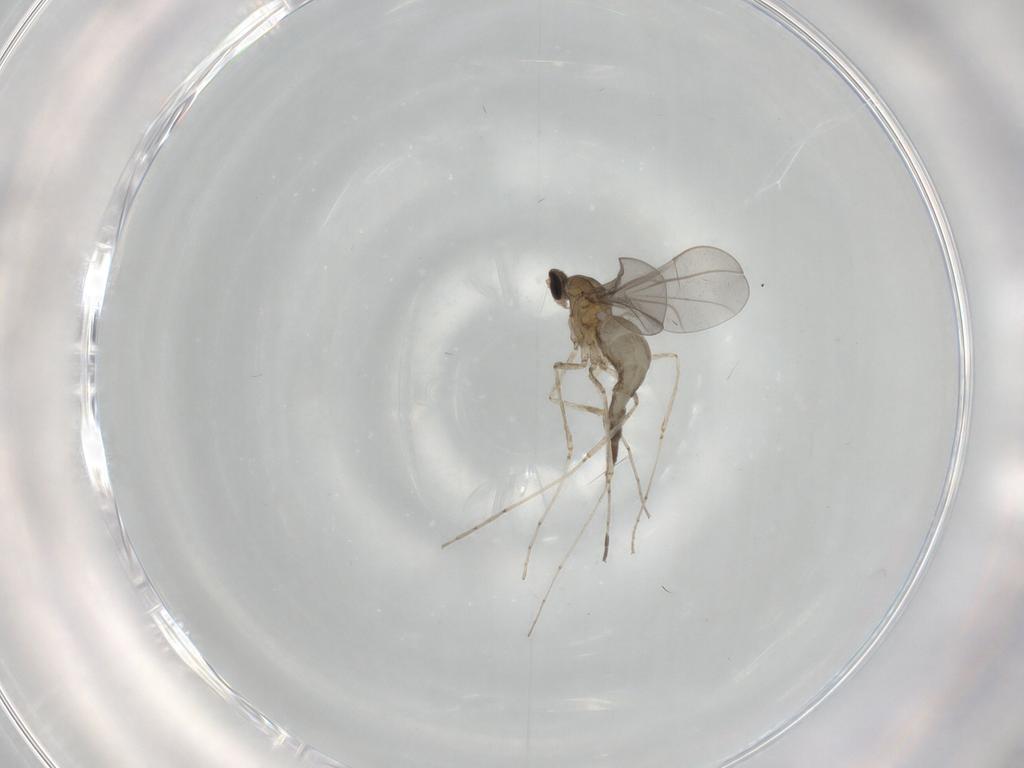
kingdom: Animalia
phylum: Arthropoda
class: Insecta
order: Diptera
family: Cecidomyiidae
